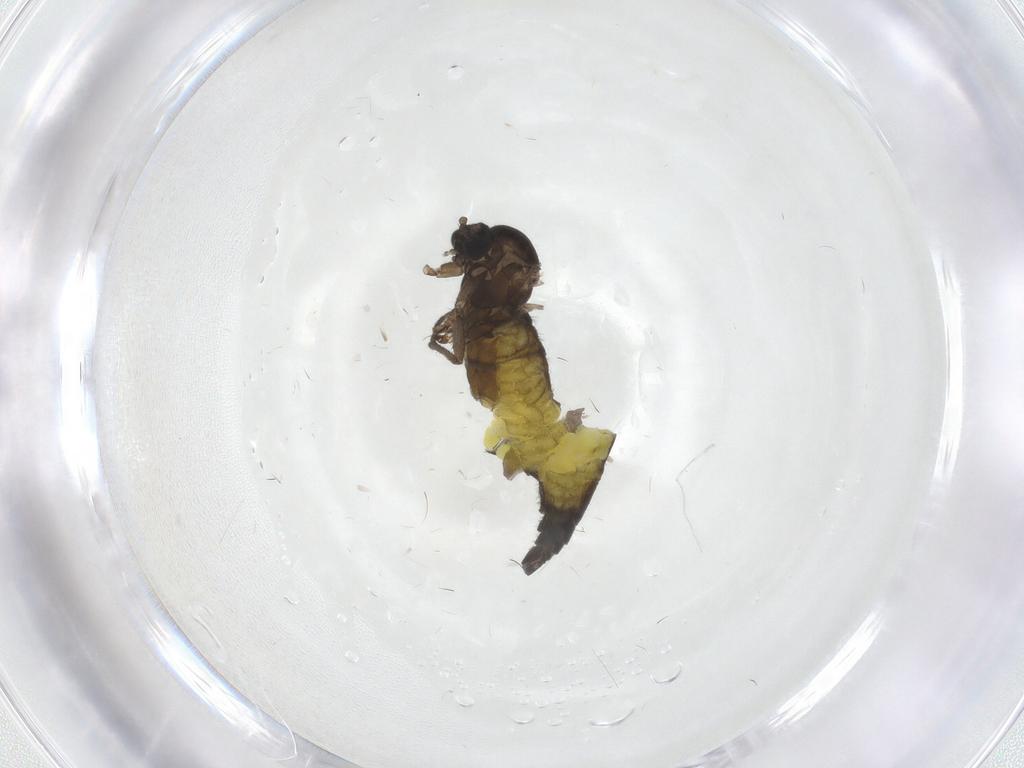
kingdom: Animalia
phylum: Arthropoda
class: Insecta
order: Diptera
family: Sciaridae
